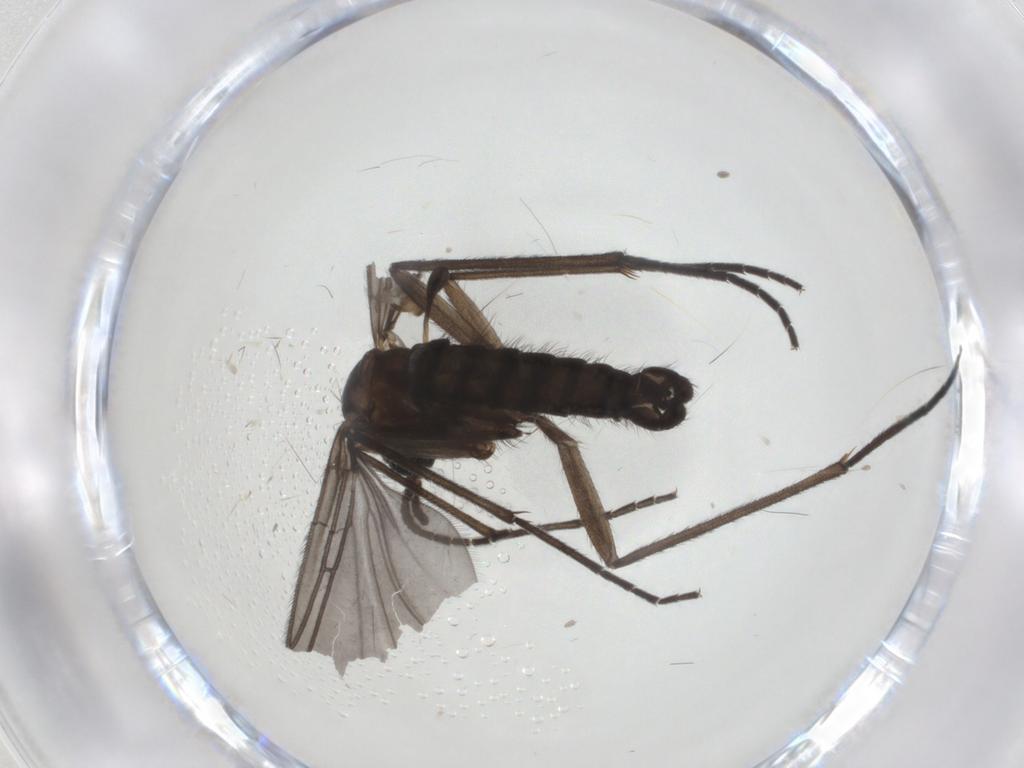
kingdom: Animalia
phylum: Arthropoda
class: Insecta
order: Diptera
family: Sciaridae
